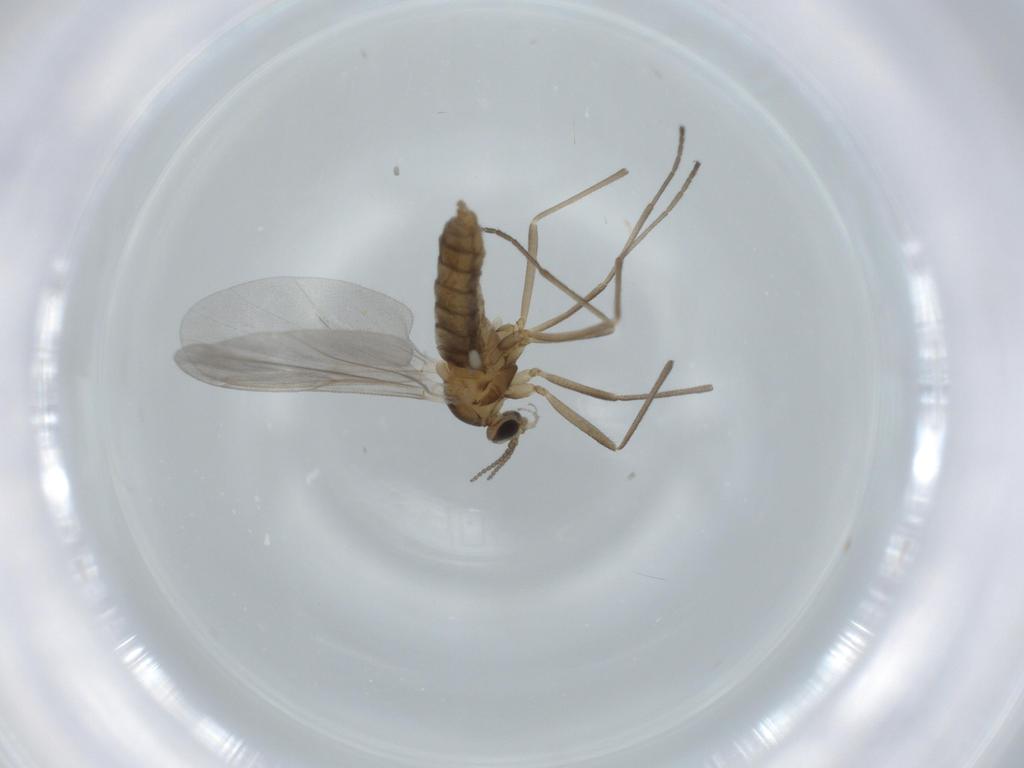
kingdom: Animalia
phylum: Arthropoda
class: Insecta
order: Diptera
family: Cecidomyiidae
